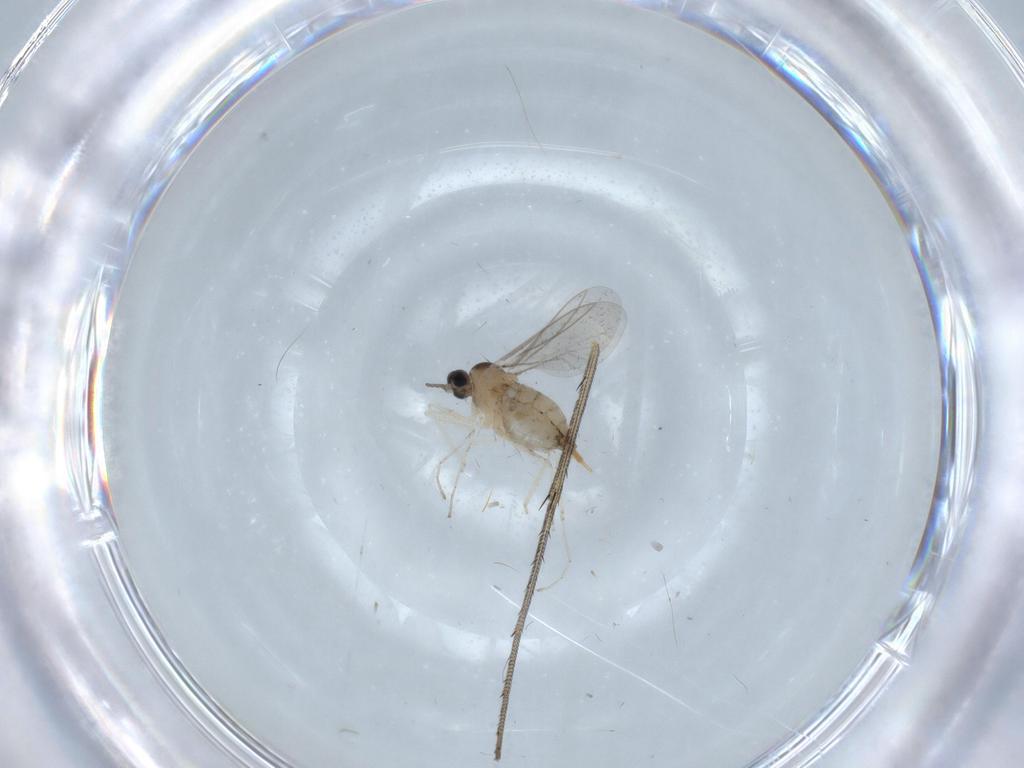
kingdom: Animalia
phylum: Arthropoda
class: Insecta
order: Diptera
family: Cecidomyiidae
